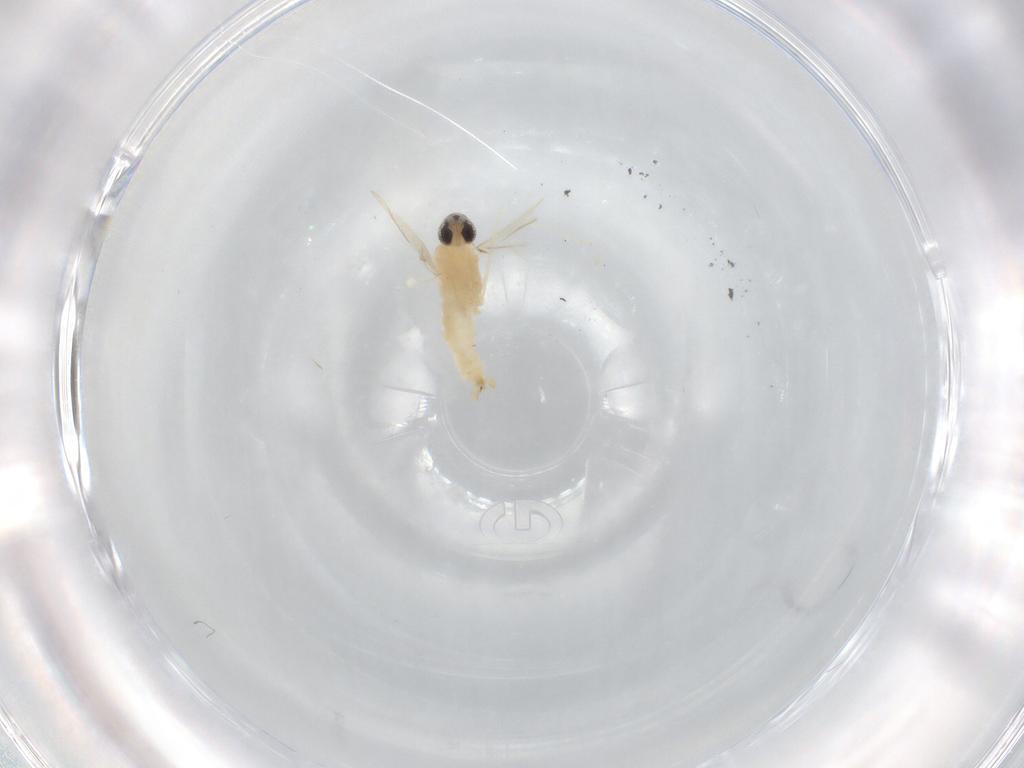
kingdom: Animalia
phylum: Arthropoda
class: Insecta
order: Diptera
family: Cecidomyiidae
